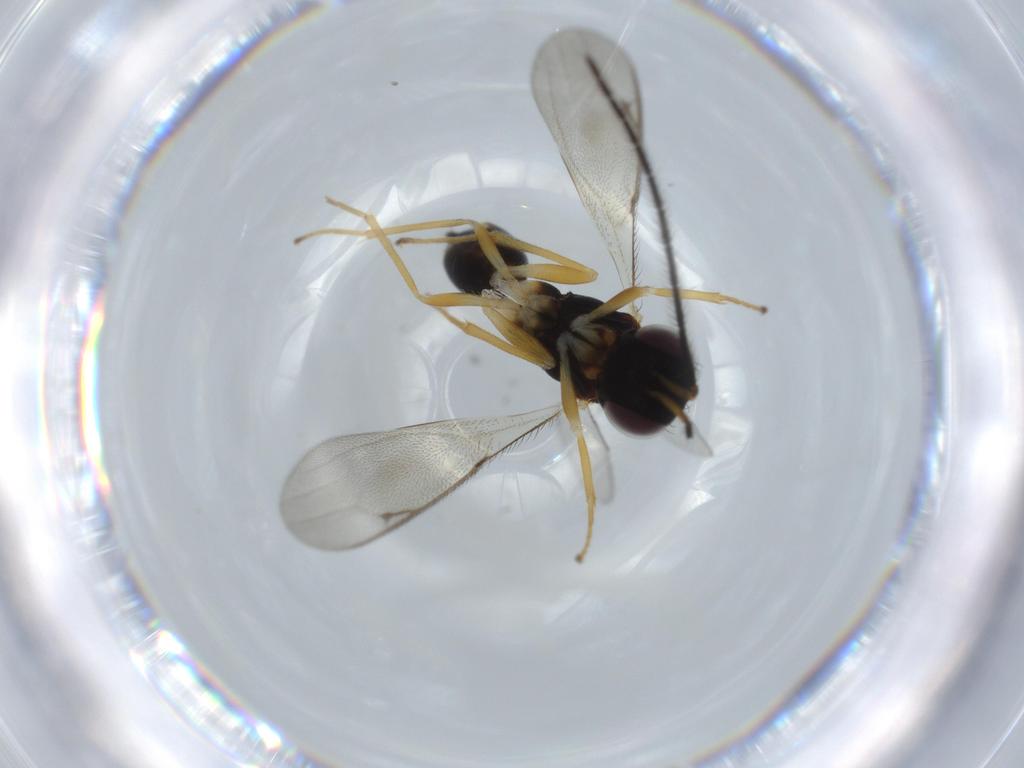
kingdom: Animalia
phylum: Arthropoda
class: Insecta
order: Hymenoptera
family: Diparidae
